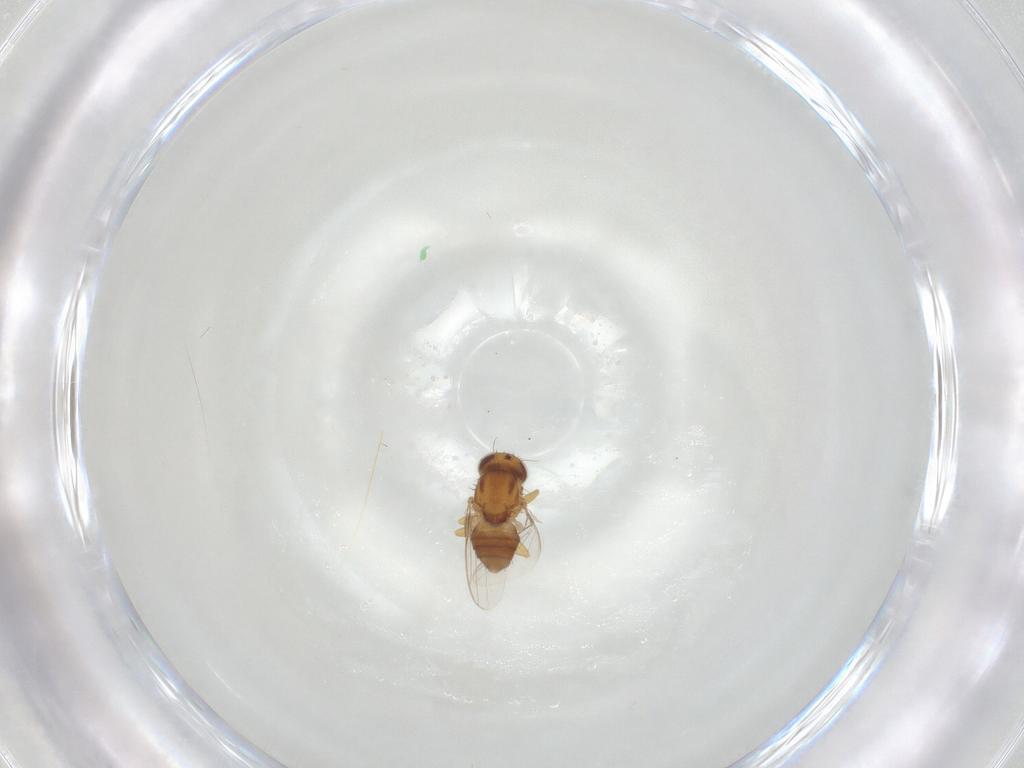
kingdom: Animalia
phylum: Arthropoda
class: Insecta
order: Diptera
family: Chloropidae
